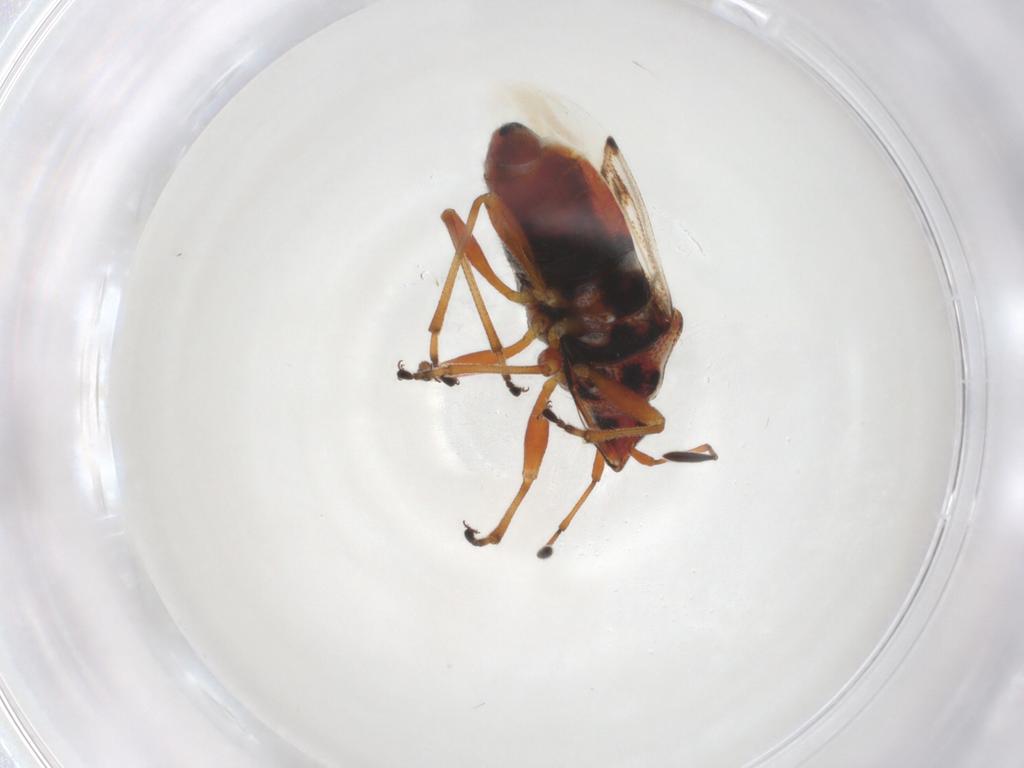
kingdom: Animalia
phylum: Arthropoda
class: Insecta
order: Hemiptera
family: Lygaeidae
